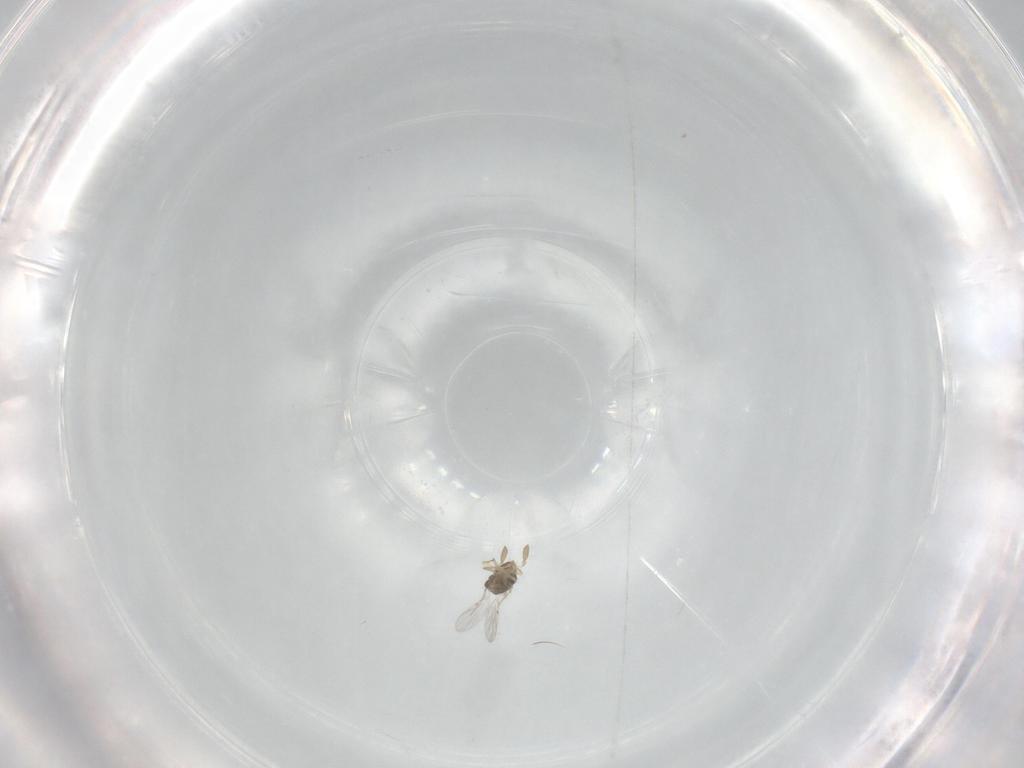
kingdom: Animalia
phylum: Arthropoda
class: Insecta
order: Hymenoptera
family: Encyrtidae
